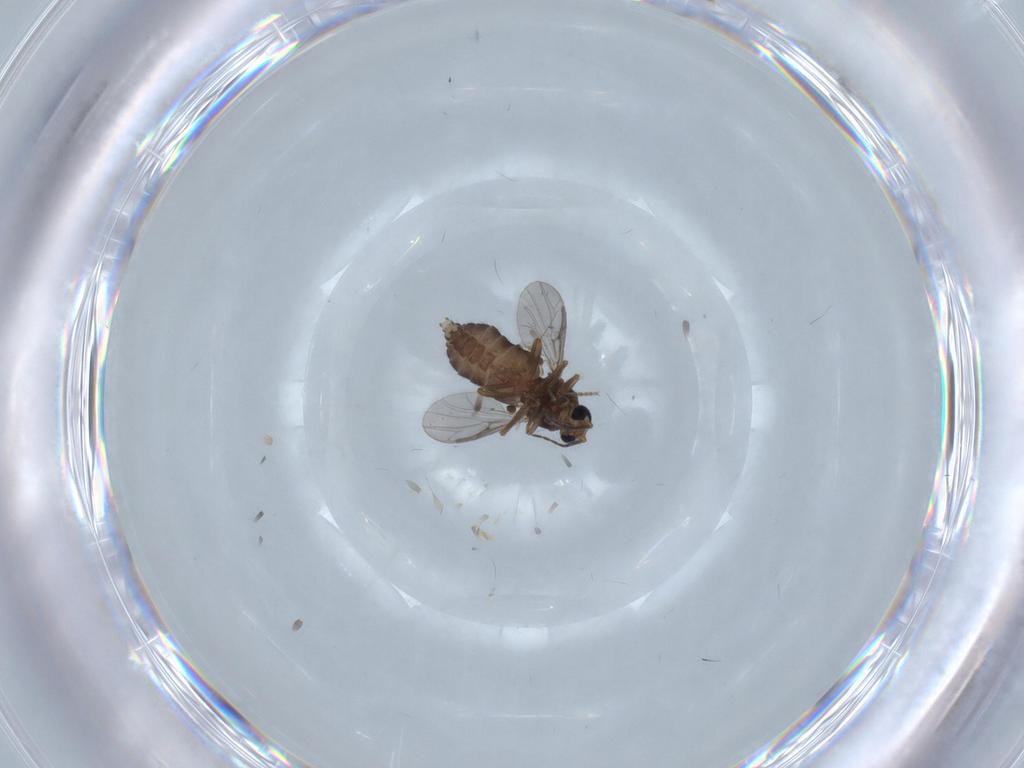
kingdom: Animalia
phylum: Arthropoda
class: Insecta
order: Diptera
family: Ceratopogonidae
